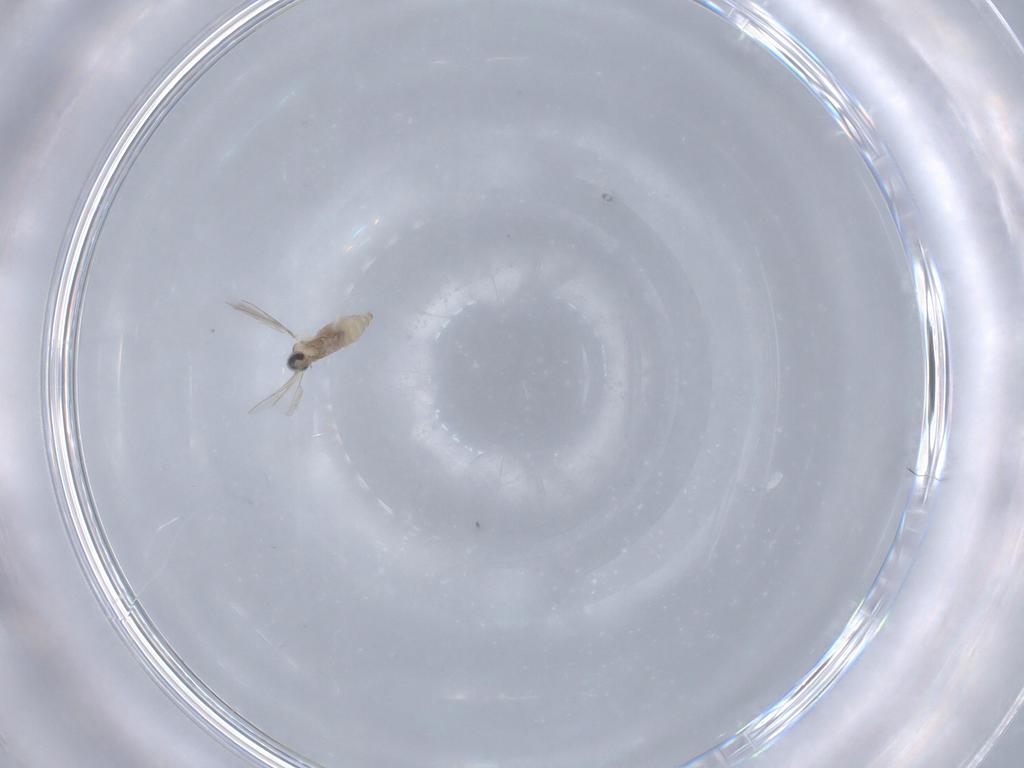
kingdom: Animalia
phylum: Arthropoda
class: Insecta
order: Diptera
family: Cecidomyiidae
